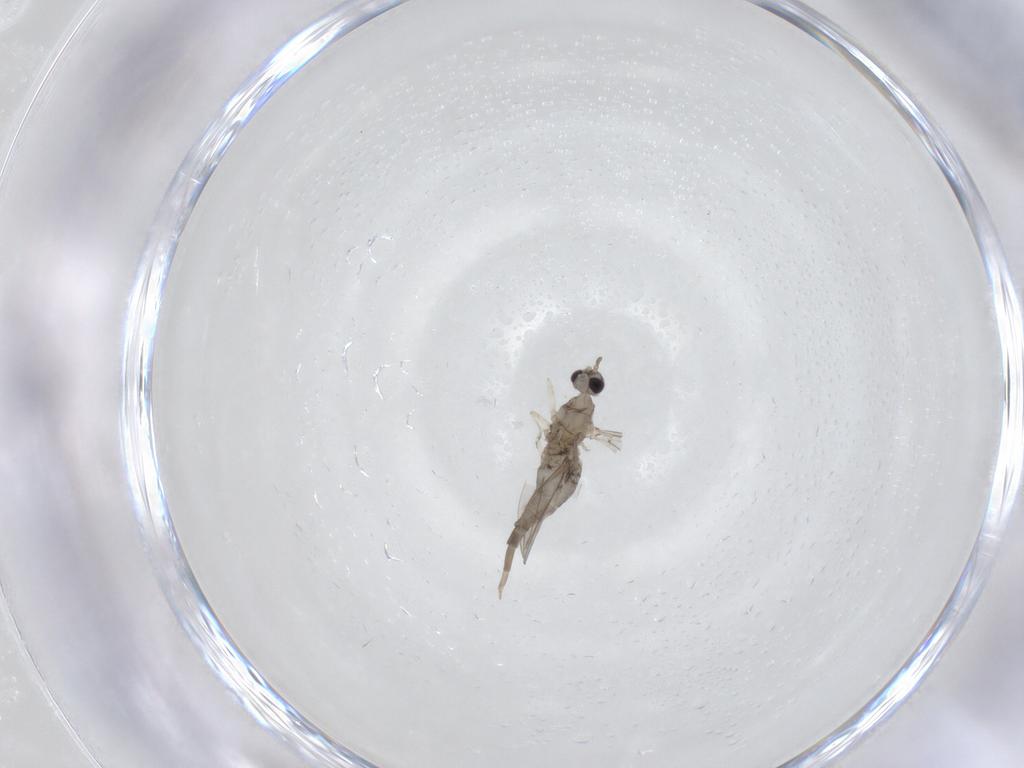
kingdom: Animalia
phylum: Arthropoda
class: Insecta
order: Diptera
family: Cecidomyiidae
